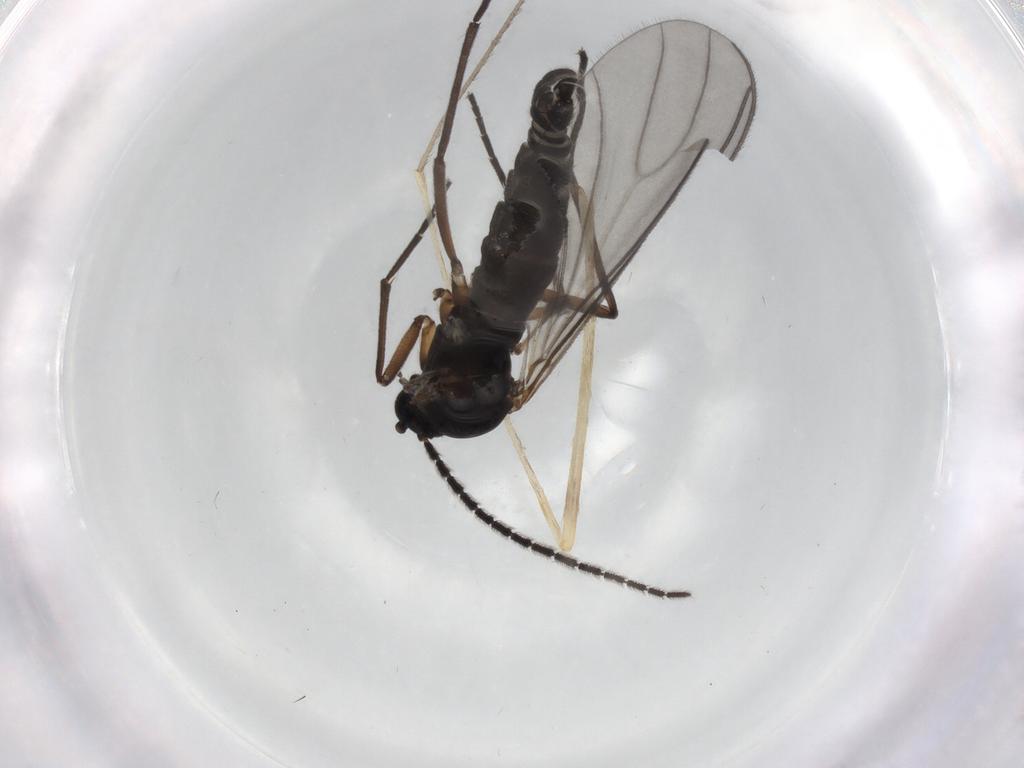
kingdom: Animalia
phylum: Arthropoda
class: Insecta
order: Diptera
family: Sciaridae
